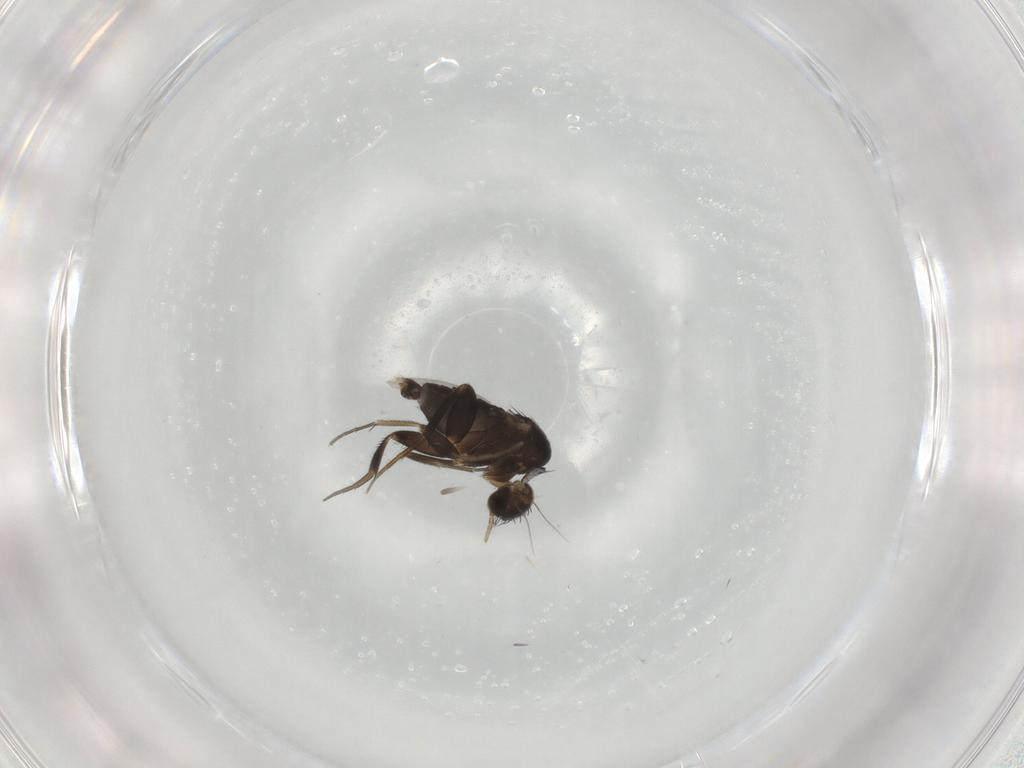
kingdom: Animalia
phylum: Arthropoda
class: Insecta
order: Diptera
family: Phoridae
